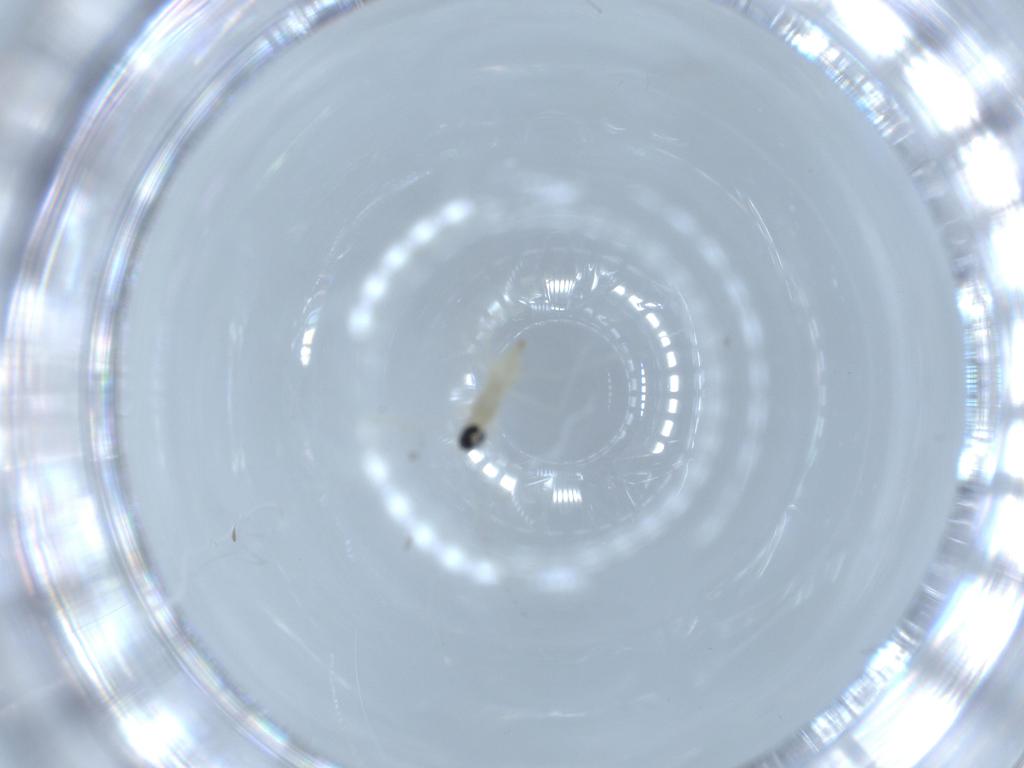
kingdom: Animalia
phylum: Arthropoda
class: Insecta
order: Diptera
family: Cecidomyiidae
